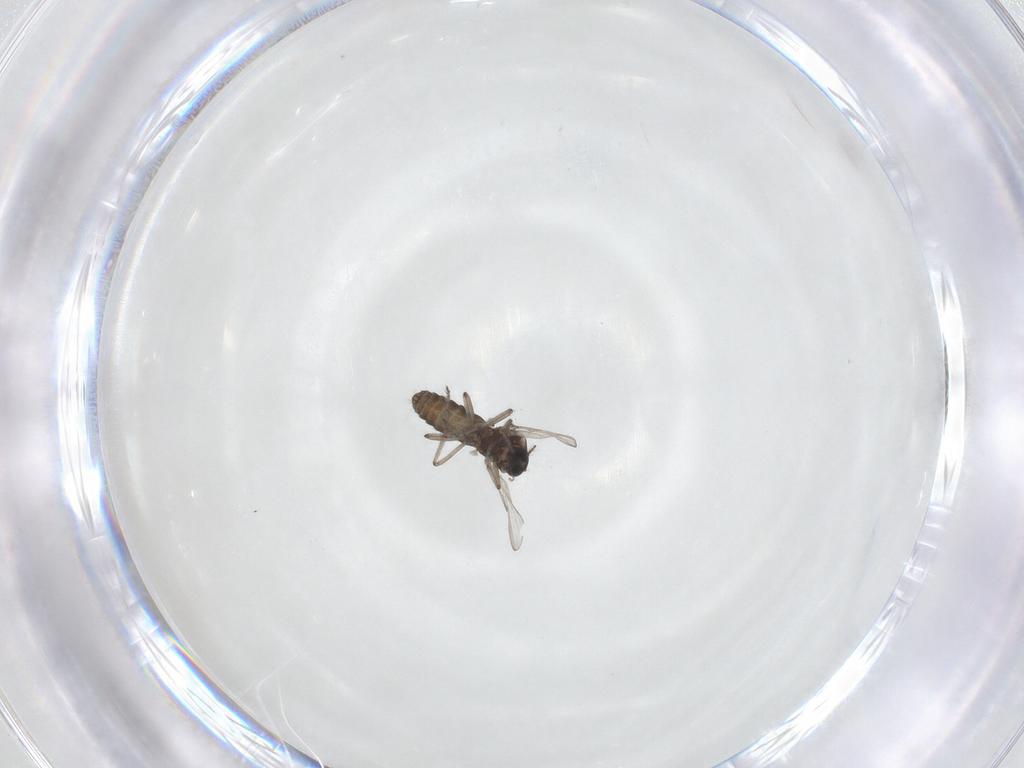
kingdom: Animalia
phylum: Arthropoda
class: Insecta
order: Diptera
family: Ceratopogonidae
